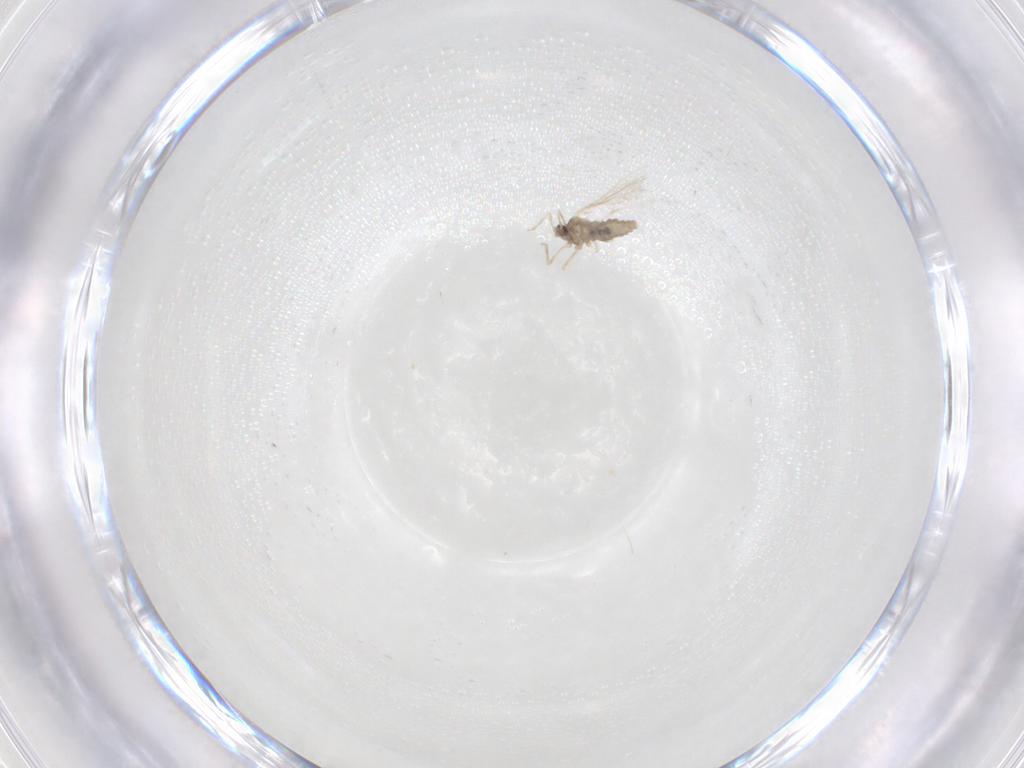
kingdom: Animalia
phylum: Arthropoda
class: Insecta
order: Diptera
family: Cecidomyiidae
